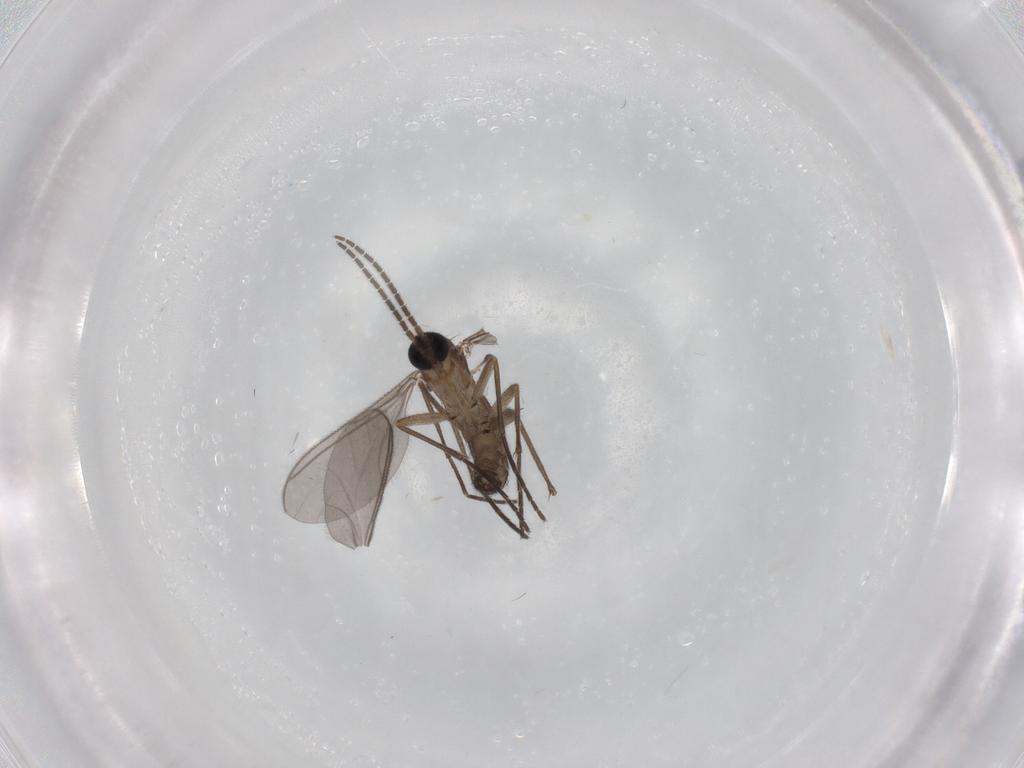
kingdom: Animalia
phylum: Arthropoda
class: Insecta
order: Diptera
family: Sciaridae
